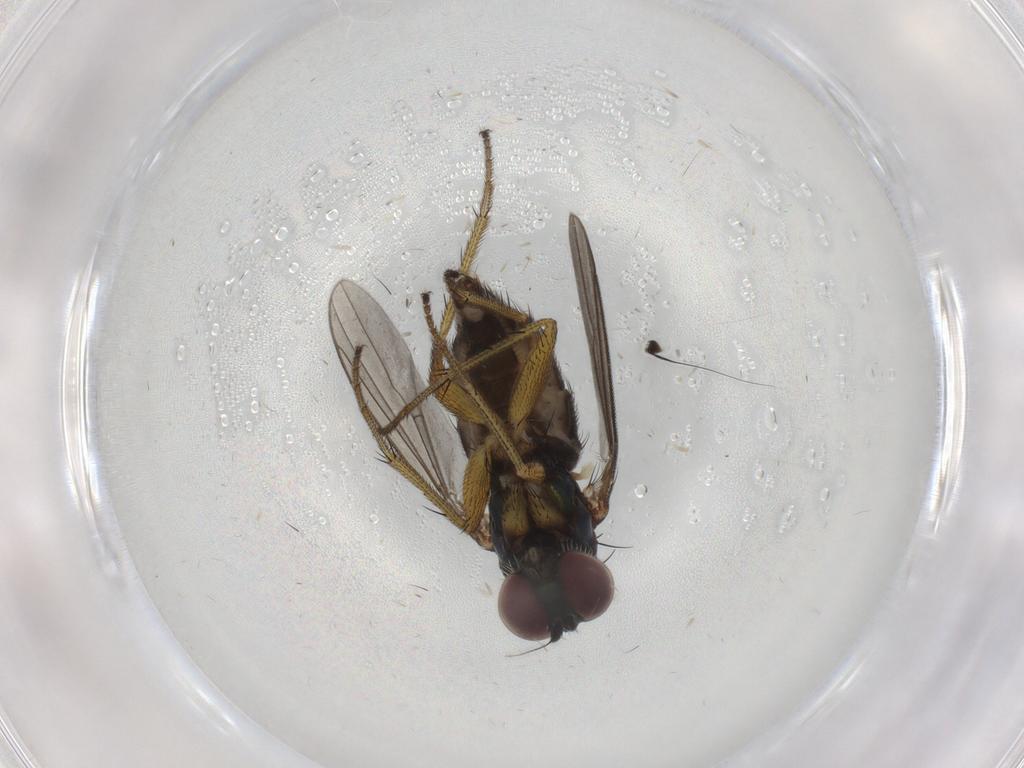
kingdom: Animalia
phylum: Arthropoda
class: Insecta
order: Diptera
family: Dolichopodidae
